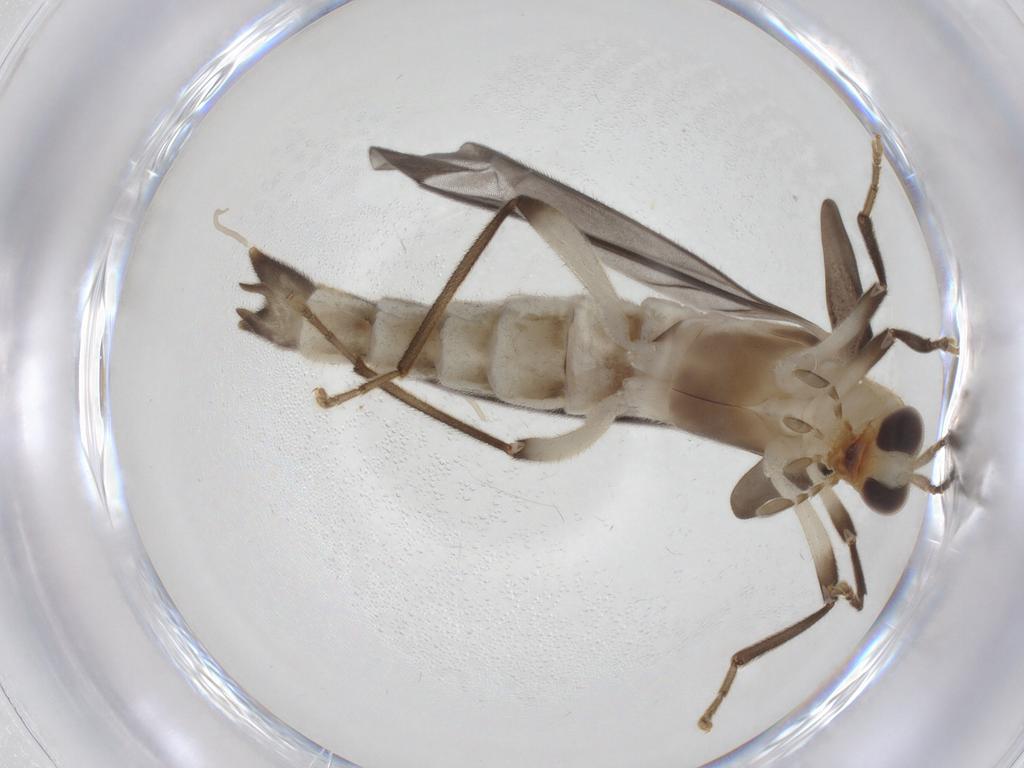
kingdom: Animalia
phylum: Arthropoda
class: Insecta
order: Coleoptera
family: Cantharidae
